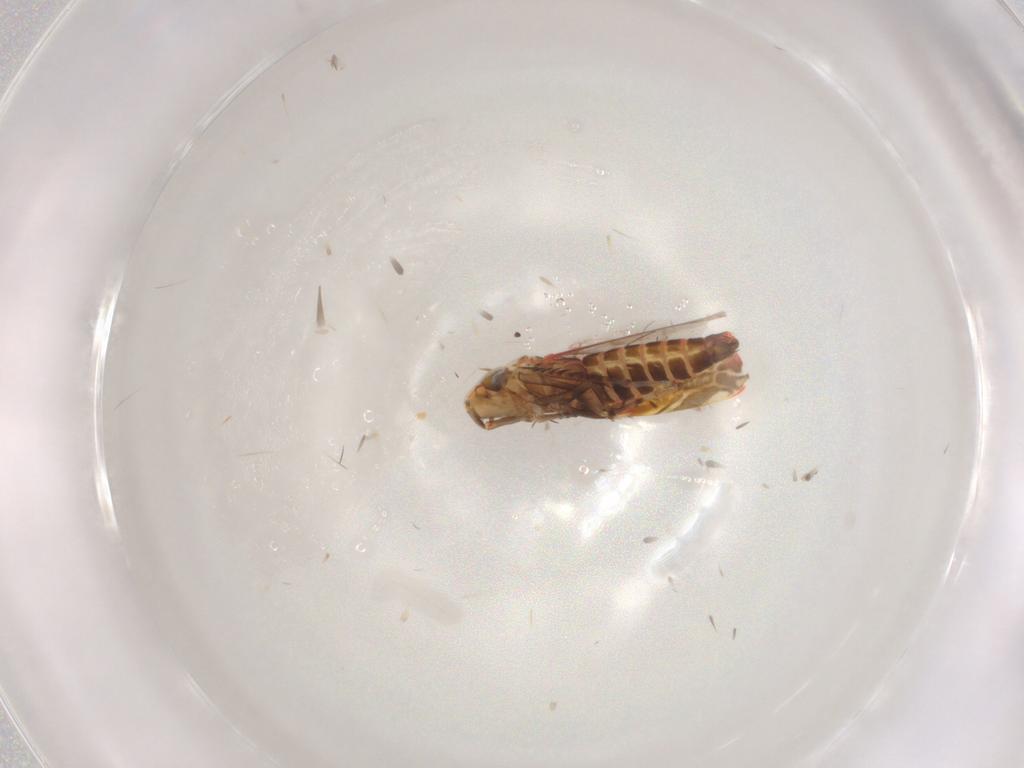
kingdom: Animalia
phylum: Arthropoda
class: Insecta
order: Hemiptera
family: Cicadellidae
